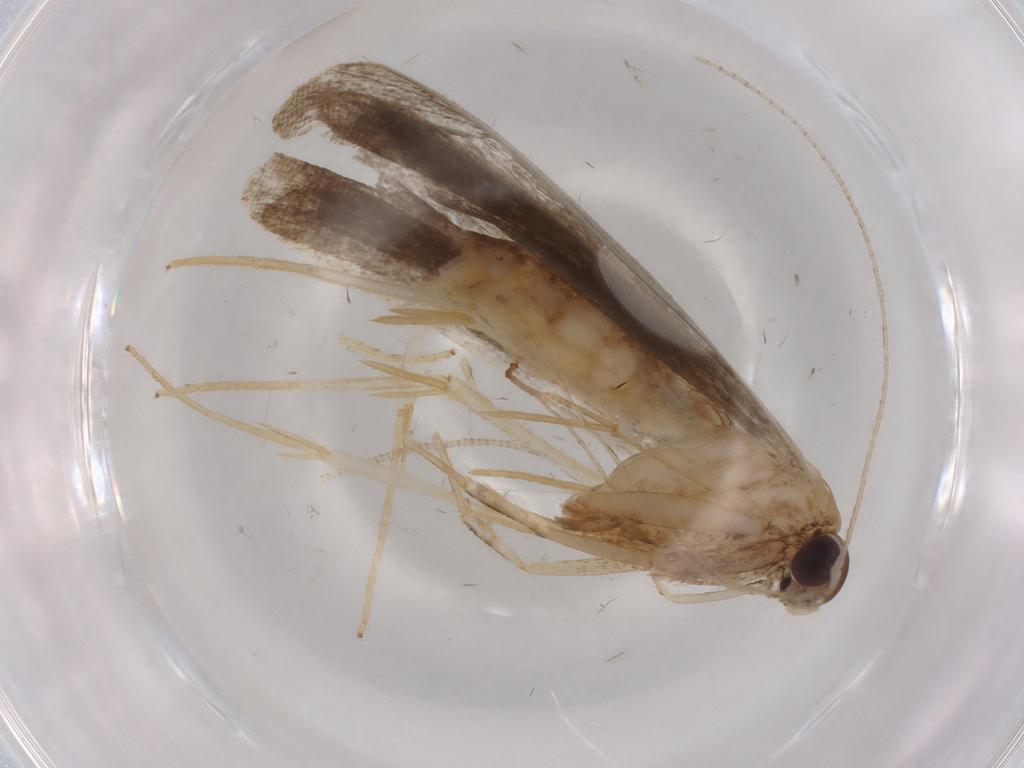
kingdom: Animalia
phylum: Arthropoda
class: Insecta
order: Lepidoptera
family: Cosmopterigidae
